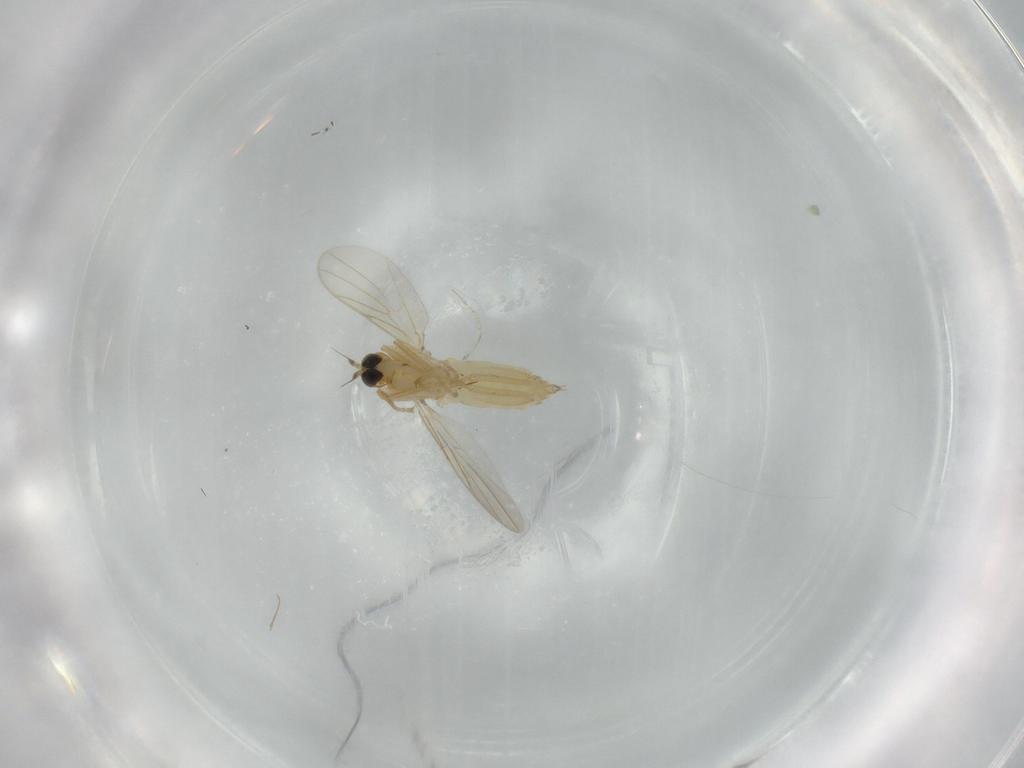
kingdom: Animalia
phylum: Arthropoda
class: Insecta
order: Diptera
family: Hybotidae
